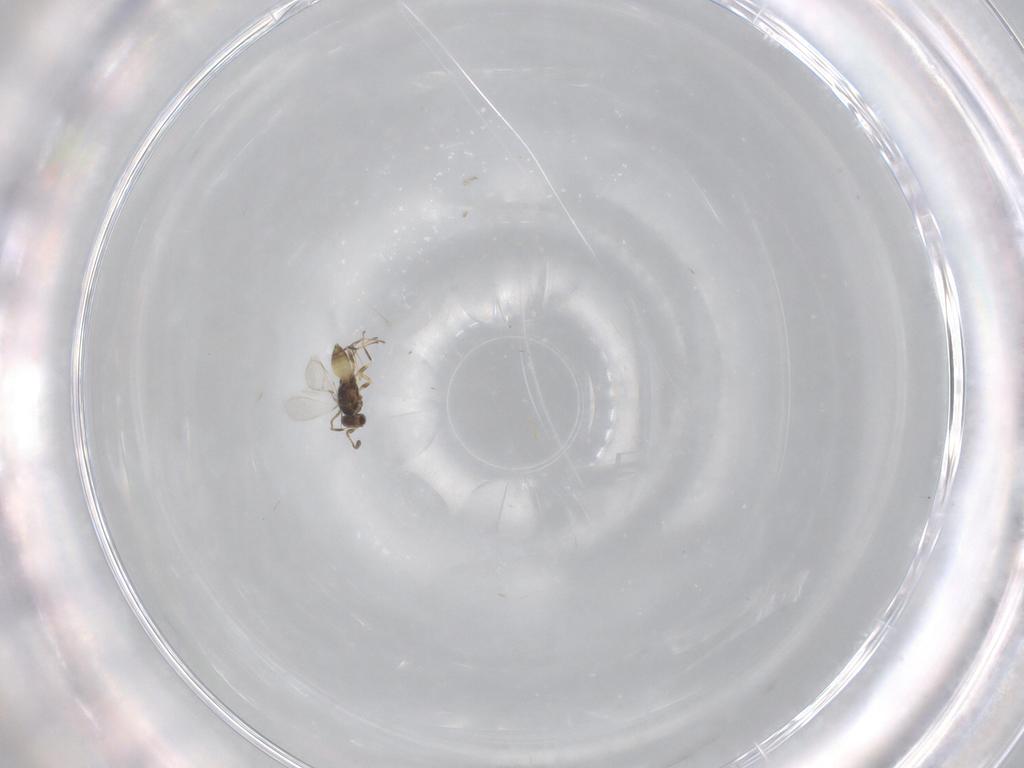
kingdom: Animalia
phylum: Arthropoda
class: Insecta
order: Hymenoptera
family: Mymaridae
